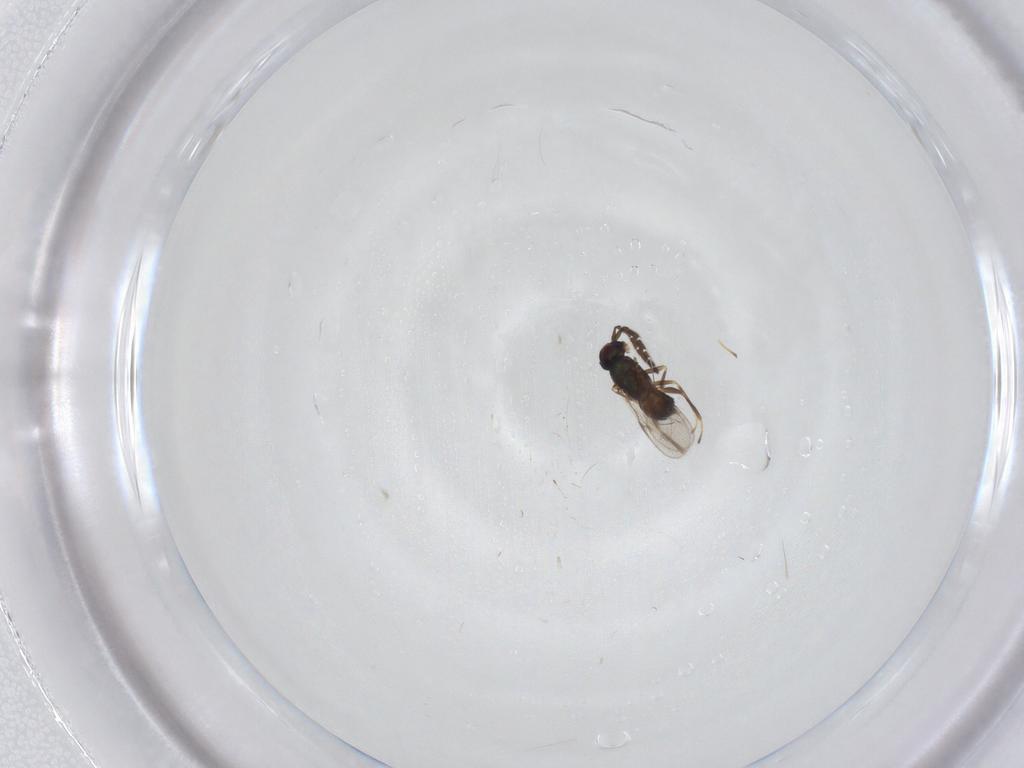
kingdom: Animalia
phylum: Arthropoda
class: Insecta
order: Hymenoptera
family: Encyrtidae
